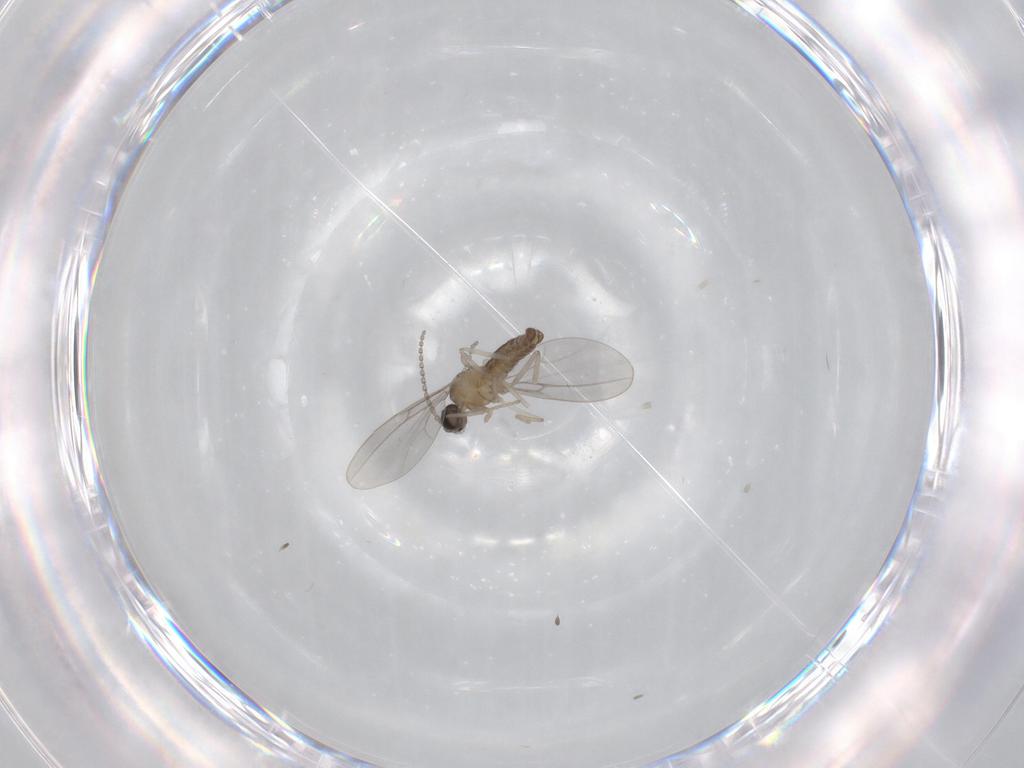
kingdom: Animalia
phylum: Arthropoda
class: Insecta
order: Diptera
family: Cecidomyiidae
